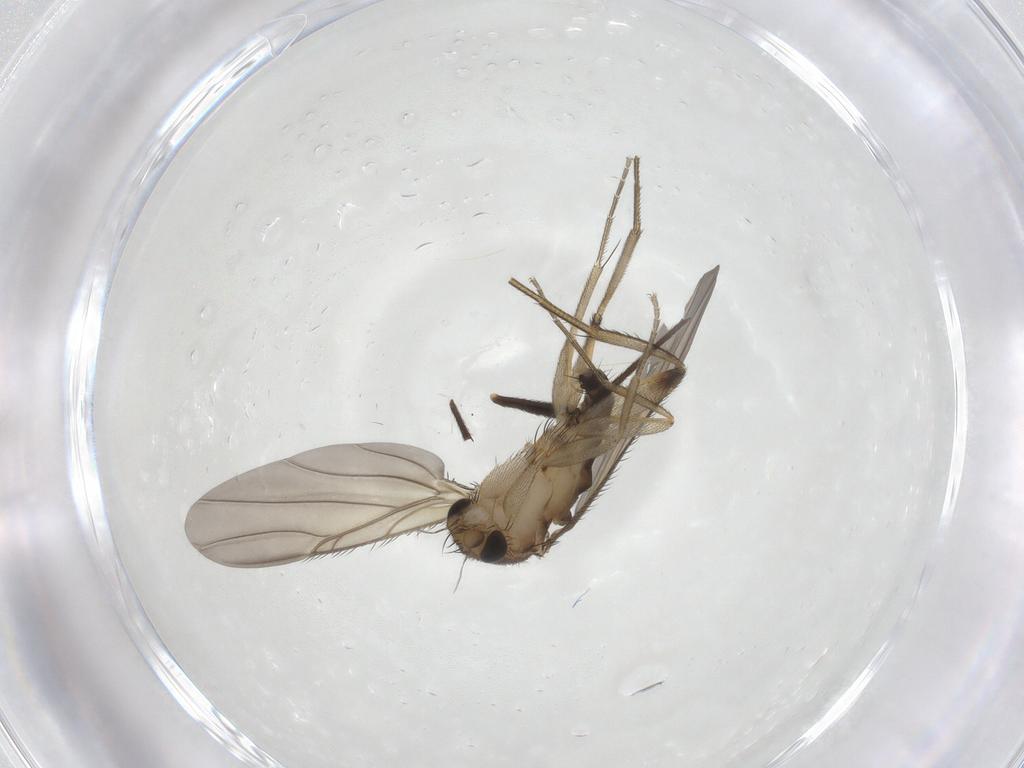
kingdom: Animalia
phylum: Arthropoda
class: Insecta
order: Diptera
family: Phoridae
